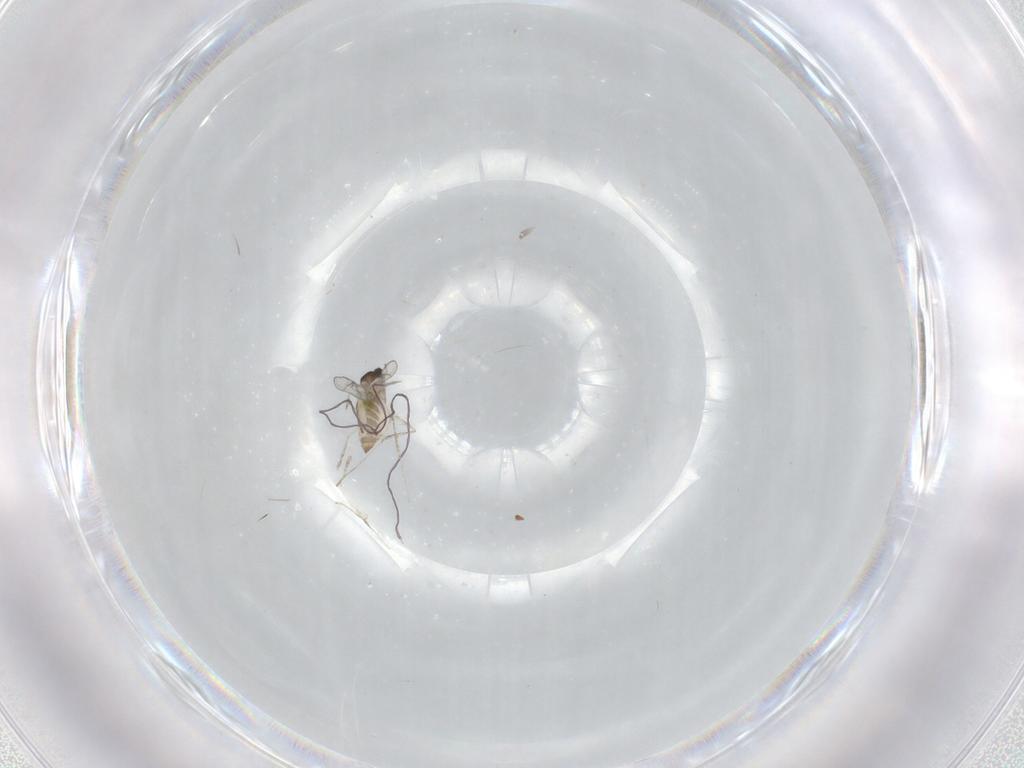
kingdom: Animalia
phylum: Arthropoda
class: Insecta
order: Diptera
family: Cecidomyiidae
